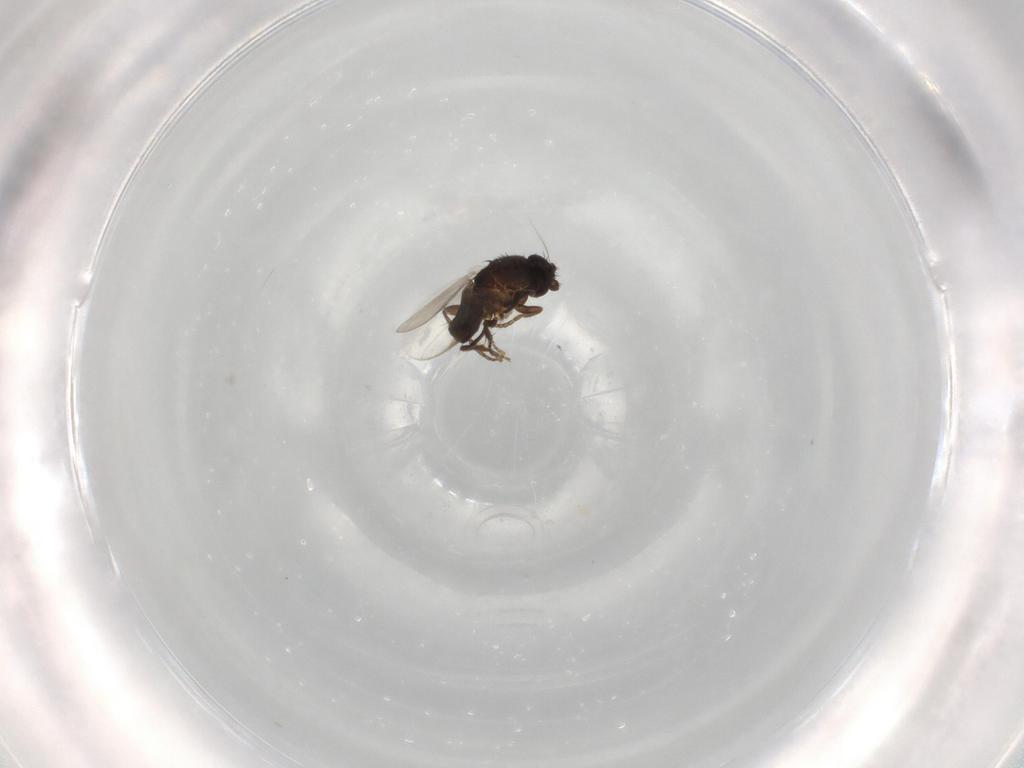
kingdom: Animalia
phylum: Arthropoda
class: Insecta
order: Diptera
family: Sphaeroceridae
